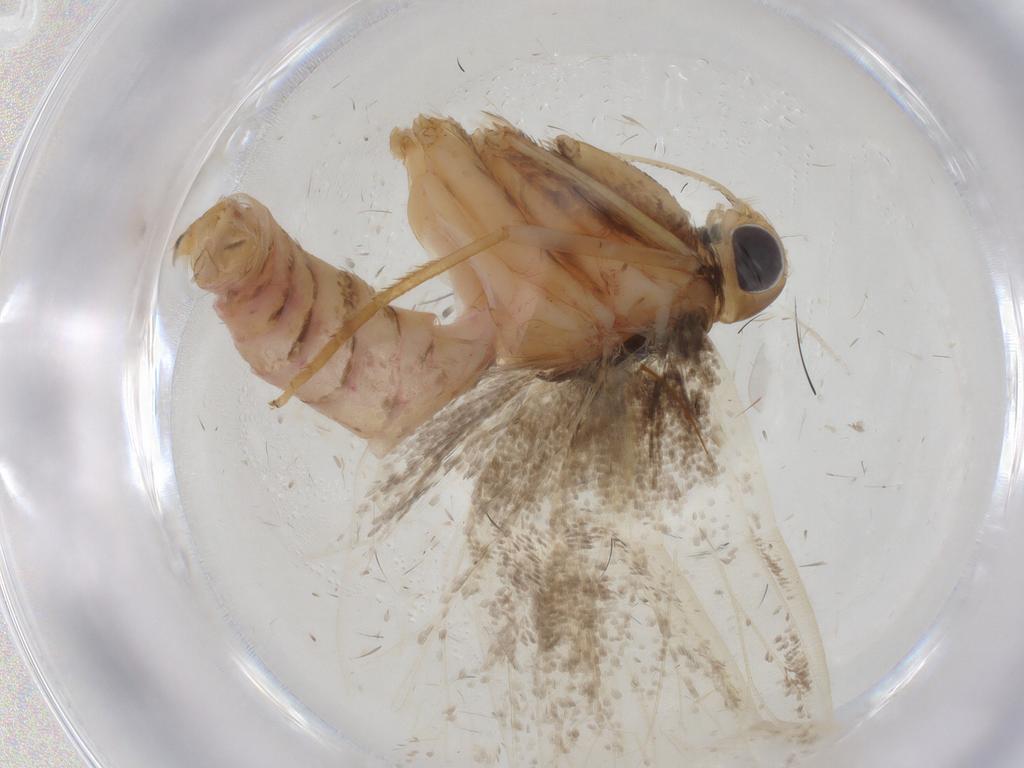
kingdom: Animalia
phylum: Arthropoda
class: Insecta
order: Lepidoptera
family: Lecithoceridae
